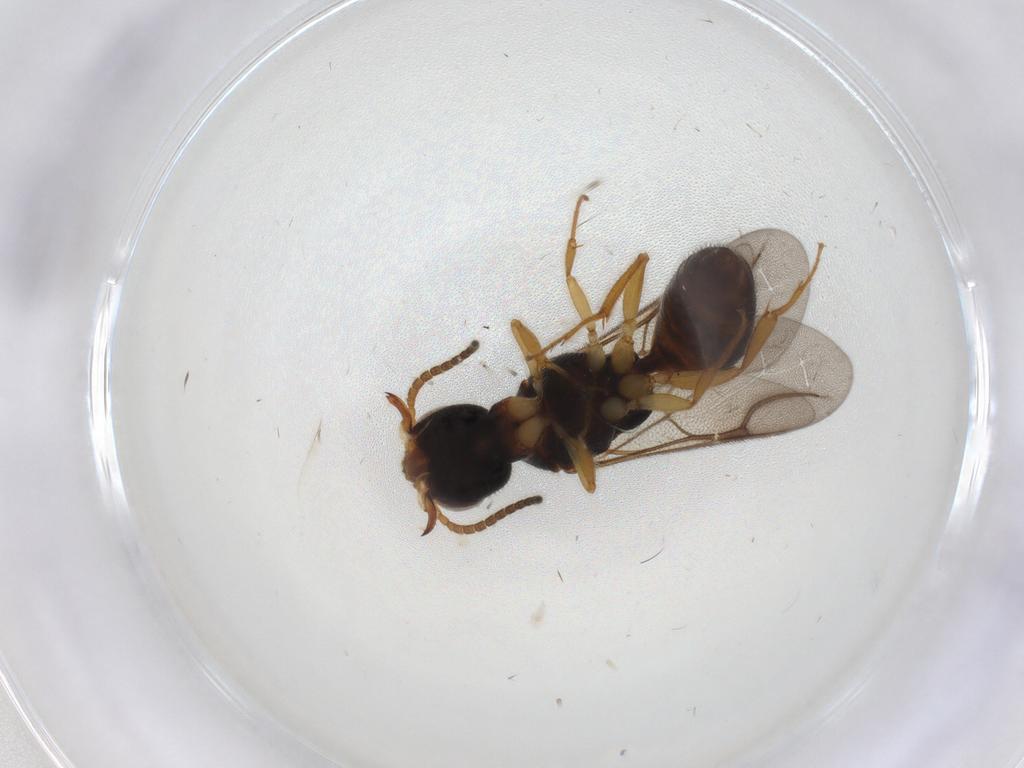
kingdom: Animalia
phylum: Arthropoda
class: Insecta
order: Hymenoptera
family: Bethylidae
